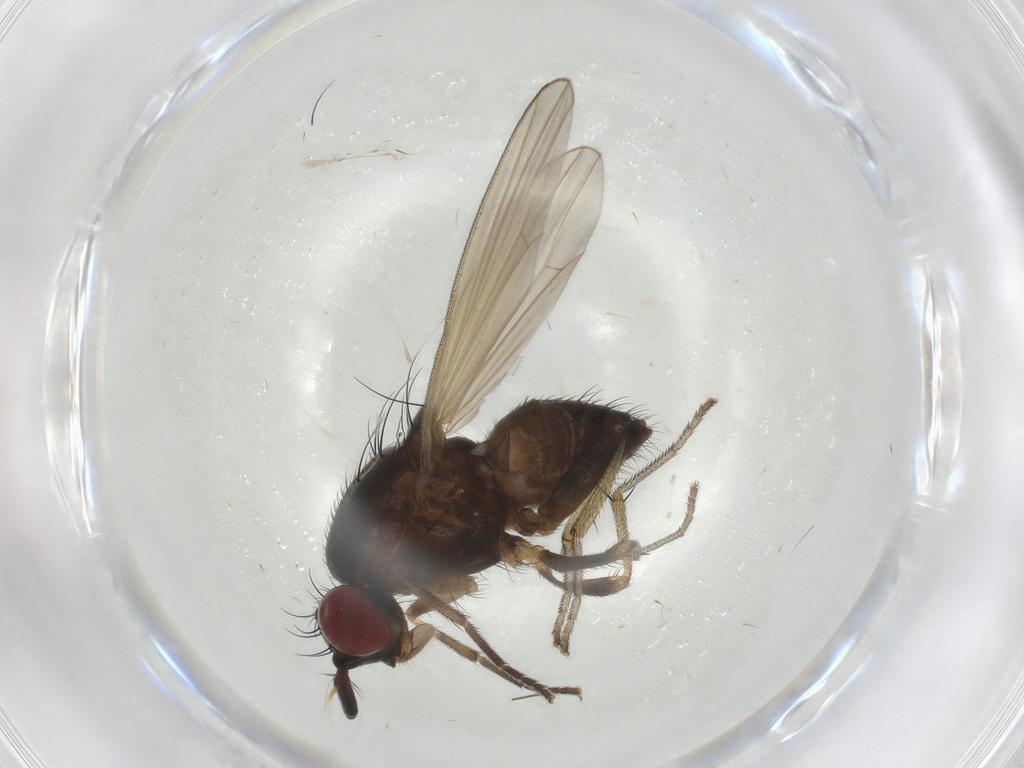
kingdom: Animalia
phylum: Arthropoda
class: Insecta
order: Diptera
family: Lauxaniidae
